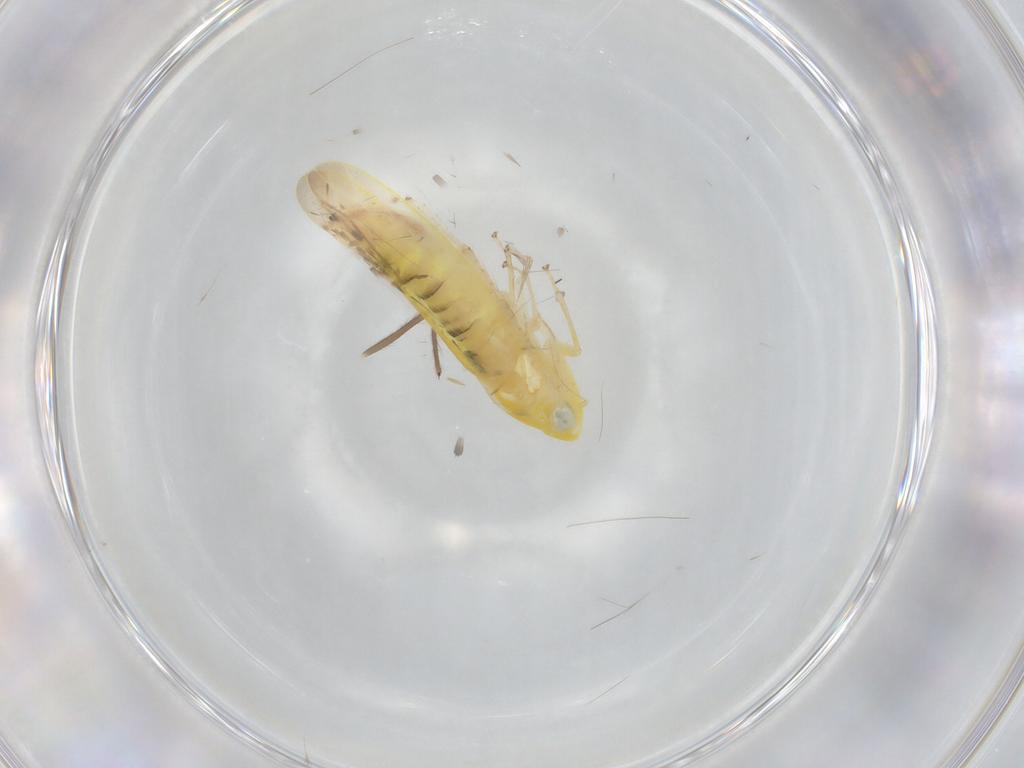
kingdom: Animalia
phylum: Arthropoda
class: Insecta
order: Hemiptera
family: Cicadellidae
